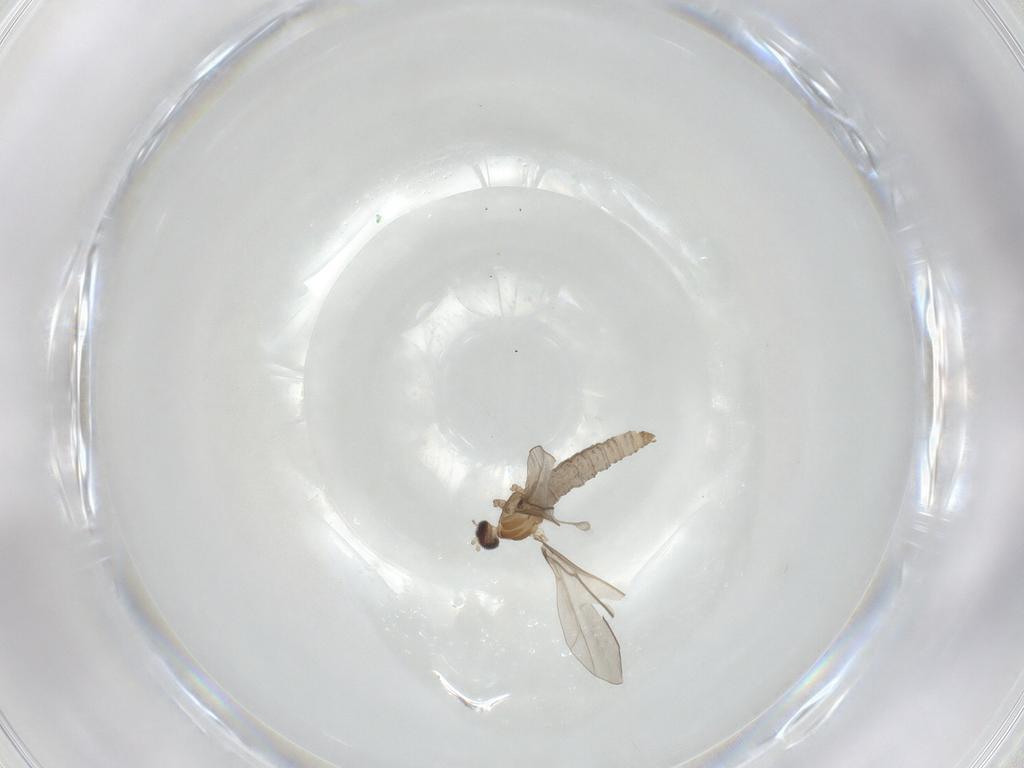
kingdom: Animalia
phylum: Arthropoda
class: Insecta
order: Diptera
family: Cecidomyiidae
